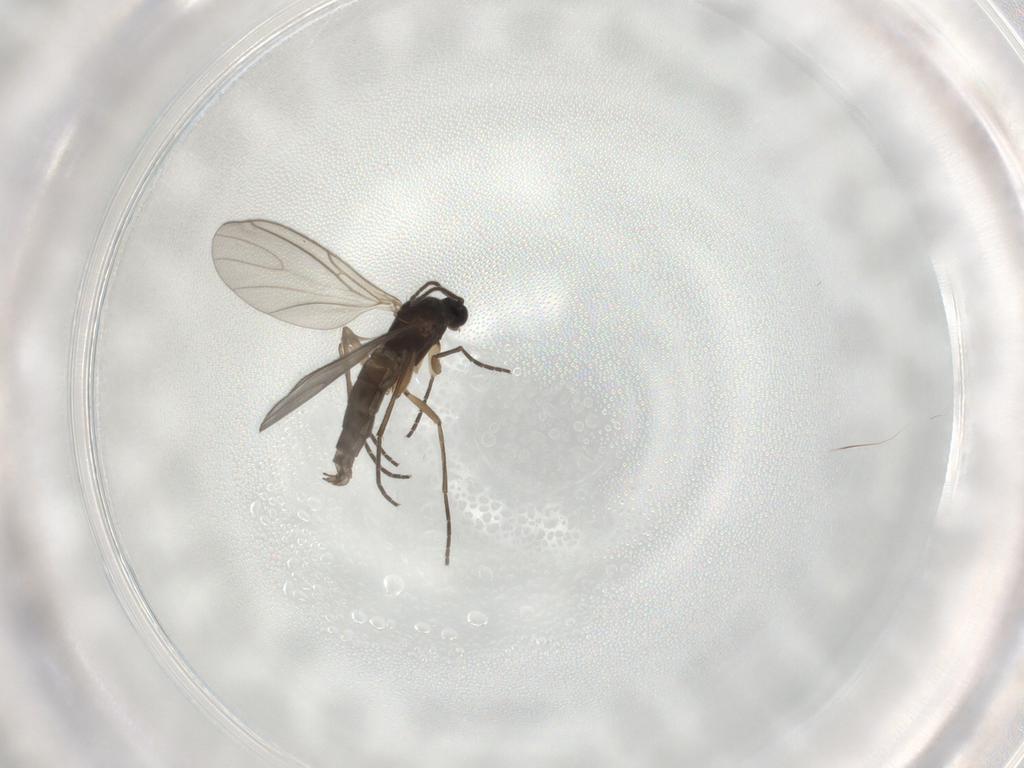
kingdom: Animalia
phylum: Arthropoda
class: Insecta
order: Diptera
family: Sciaridae
